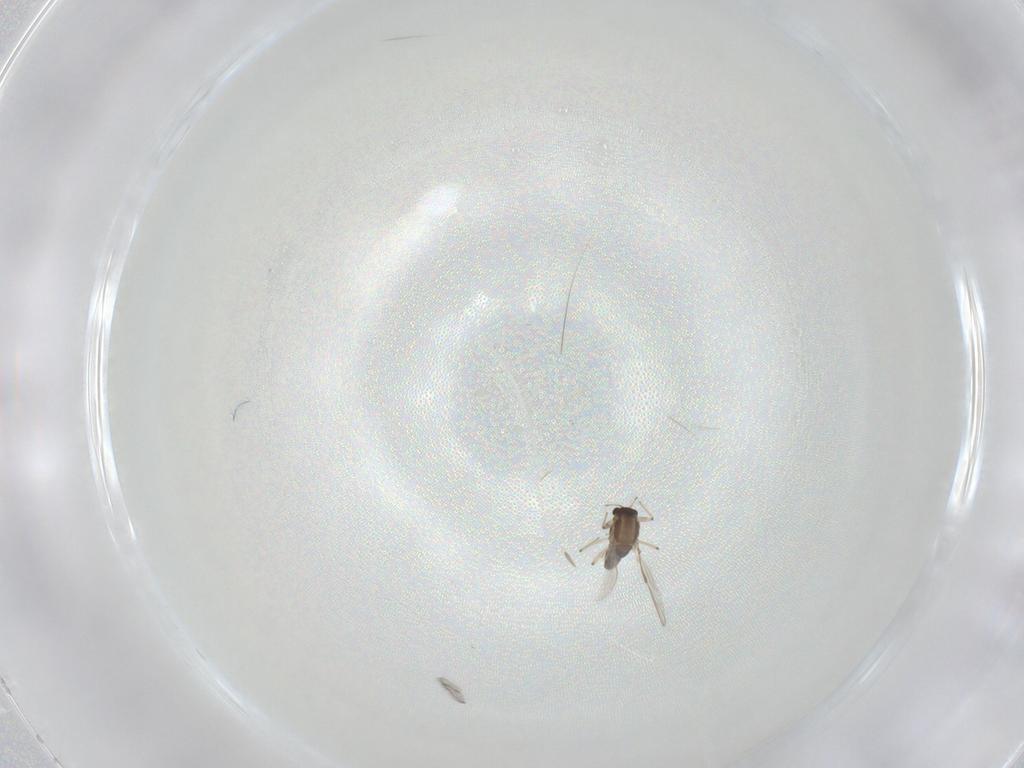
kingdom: Animalia
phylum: Arthropoda
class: Insecta
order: Diptera
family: Chironomidae
